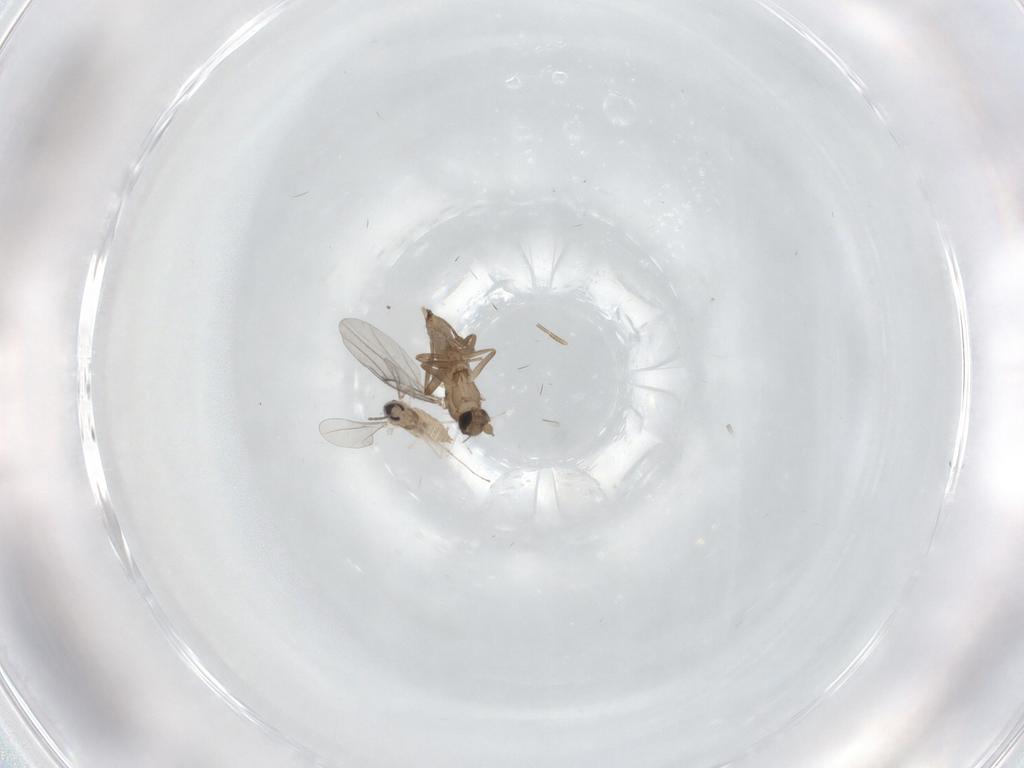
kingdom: Animalia
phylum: Arthropoda
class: Insecta
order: Diptera
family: Cecidomyiidae
